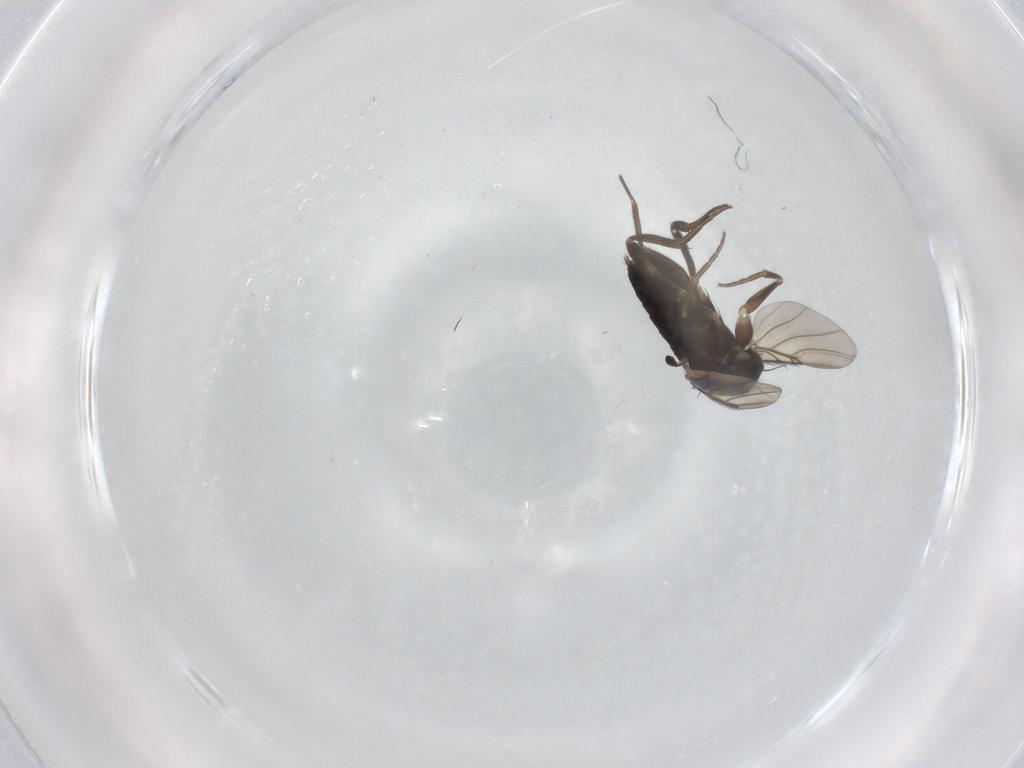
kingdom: Animalia
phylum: Arthropoda
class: Insecta
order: Diptera
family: Phoridae
